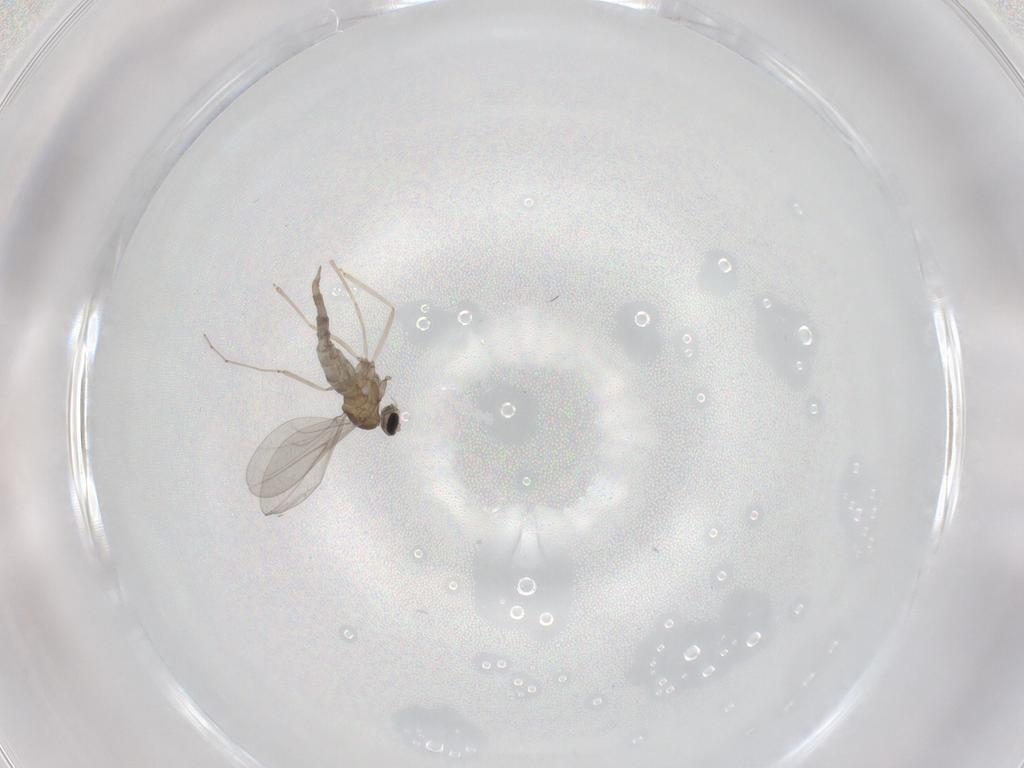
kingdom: Animalia
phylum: Arthropoda
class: Insecta
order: Diptera
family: Cecidomyiidae
